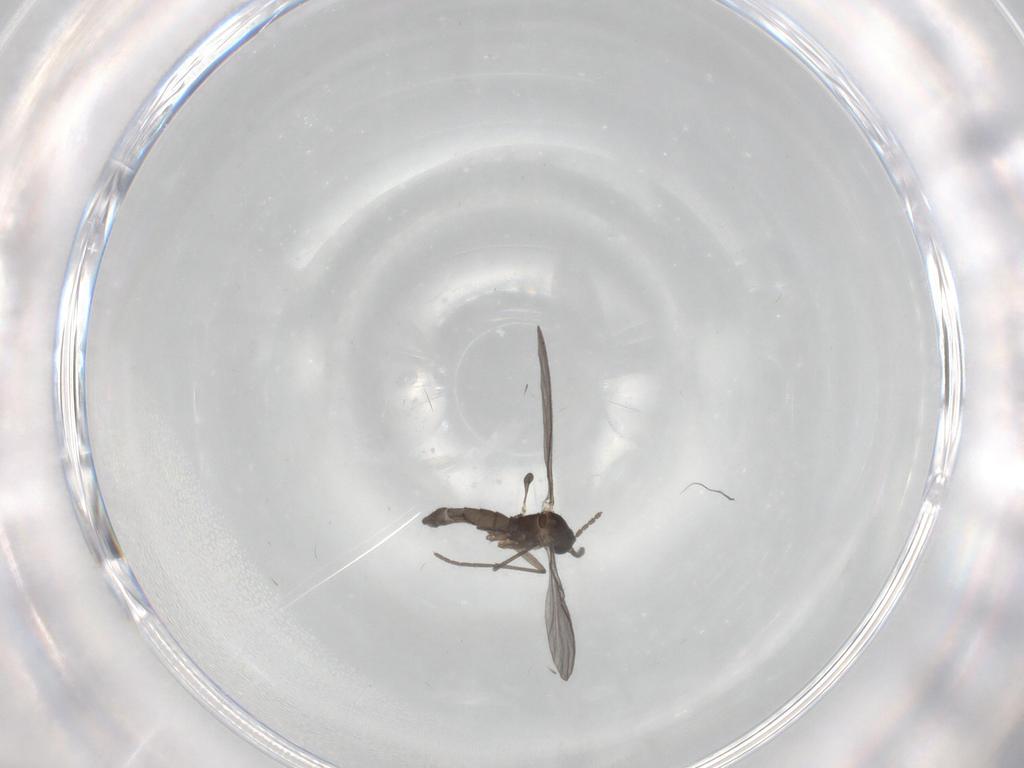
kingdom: Animalia
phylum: Arthropoda
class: Insecta
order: Diptera
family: Sciaridae
